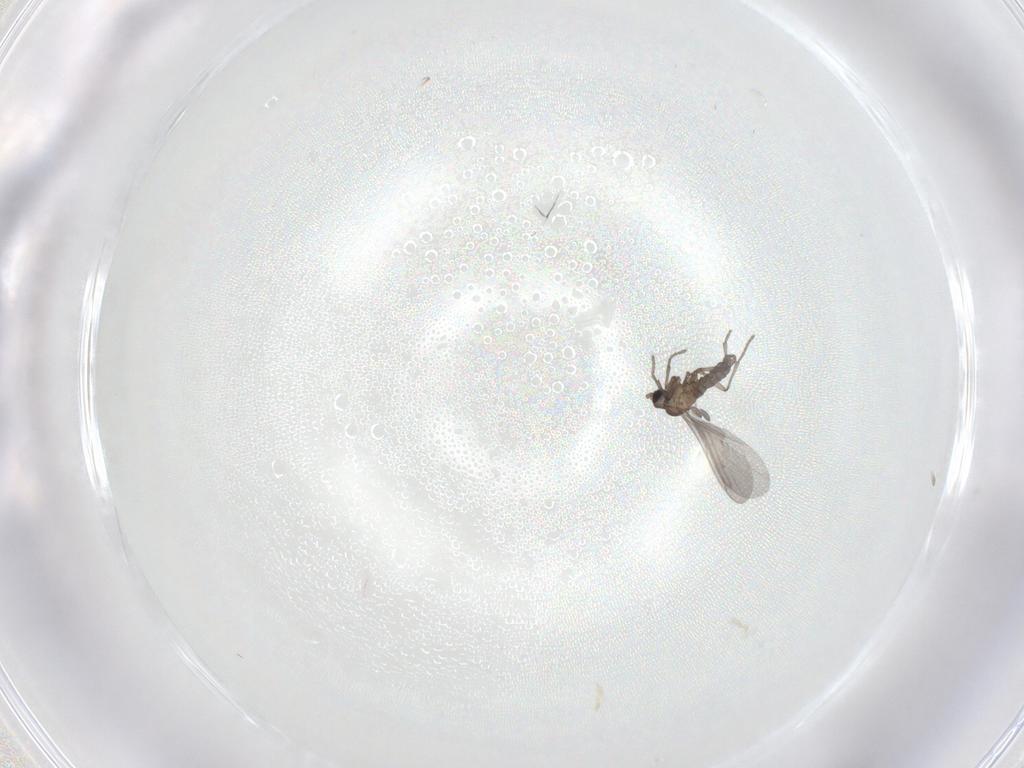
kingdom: Animalia
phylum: Arthropoda
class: Insecta
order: Diptera
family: Sciaridae
